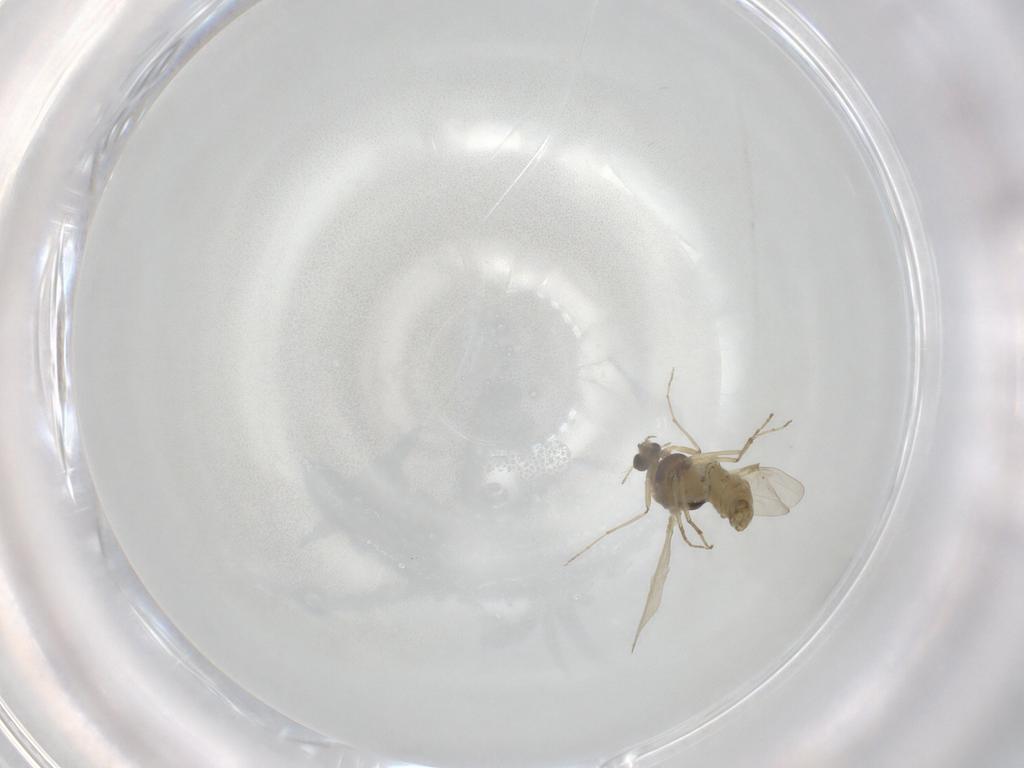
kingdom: Animalia
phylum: Arthropoda
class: Insecta
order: Diptera
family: Chironomidae
